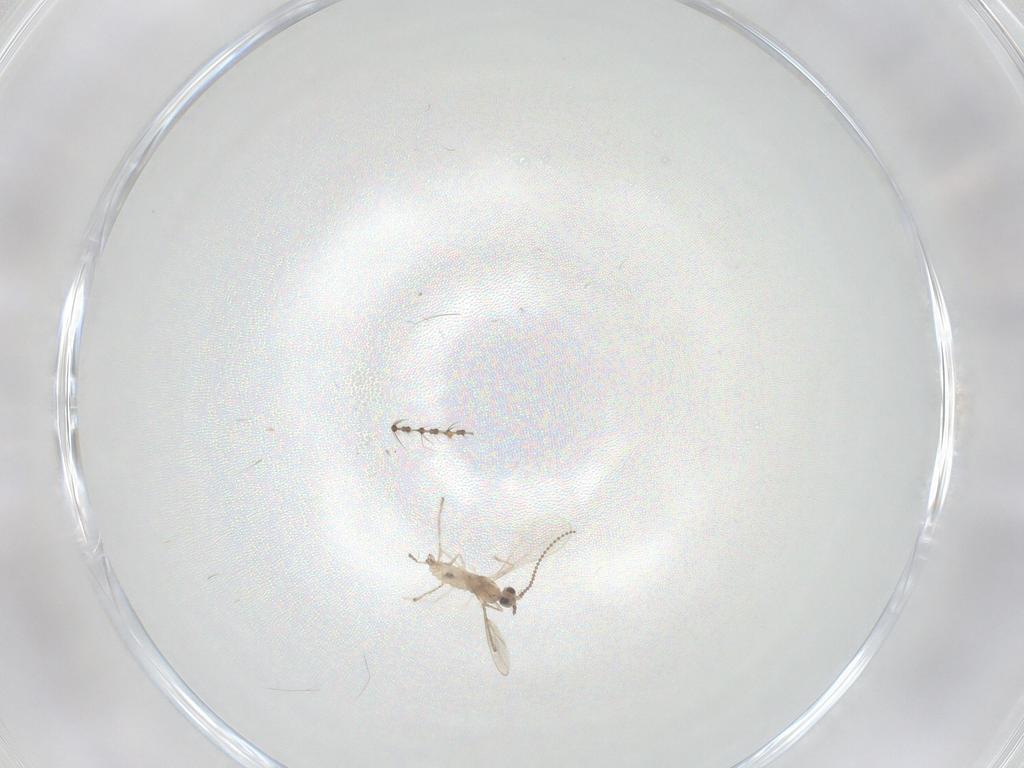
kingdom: Animalia
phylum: Arthropoda
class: Insecta
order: Diptera
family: Cecidomyiidae
